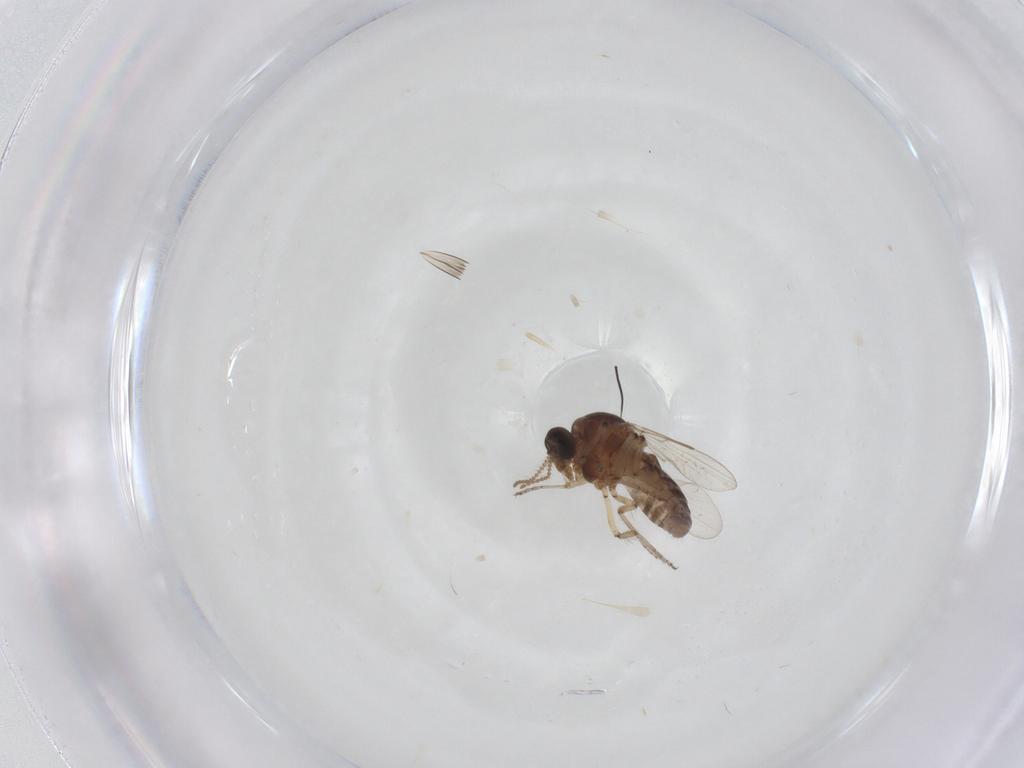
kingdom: Animalia
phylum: Arthropoda
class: Insecta
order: Diptera
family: Ceratopogonidae
